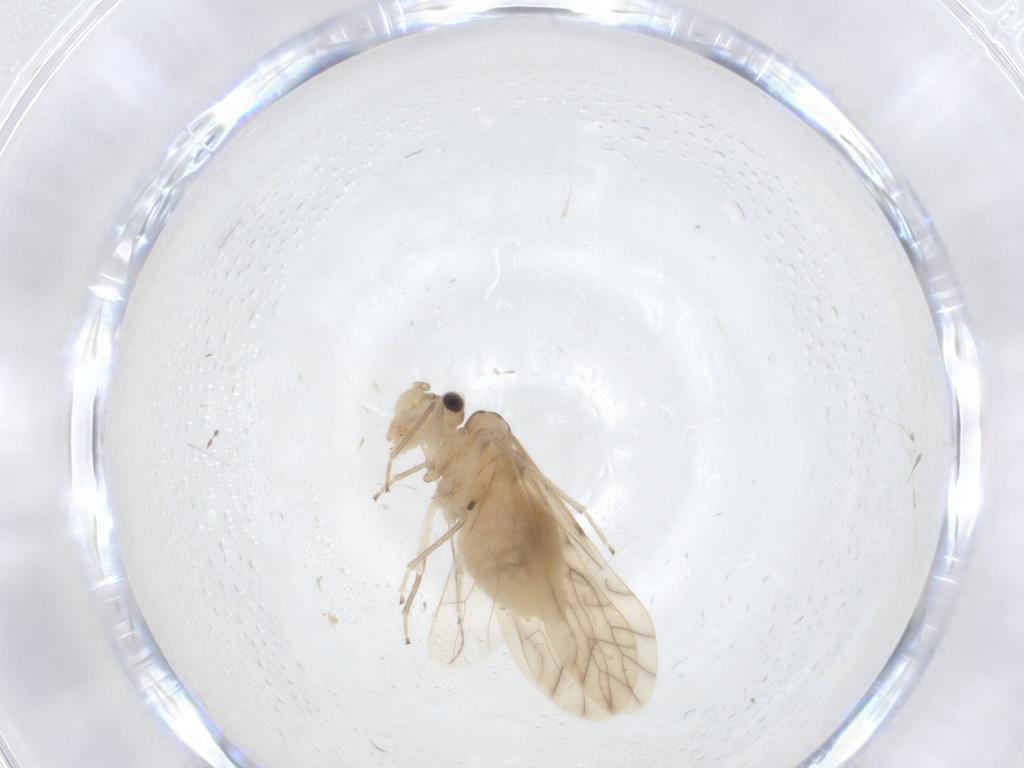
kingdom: Animalia
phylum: Arthropoda
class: Insecta
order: Psocodea
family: Caeciliusidae
